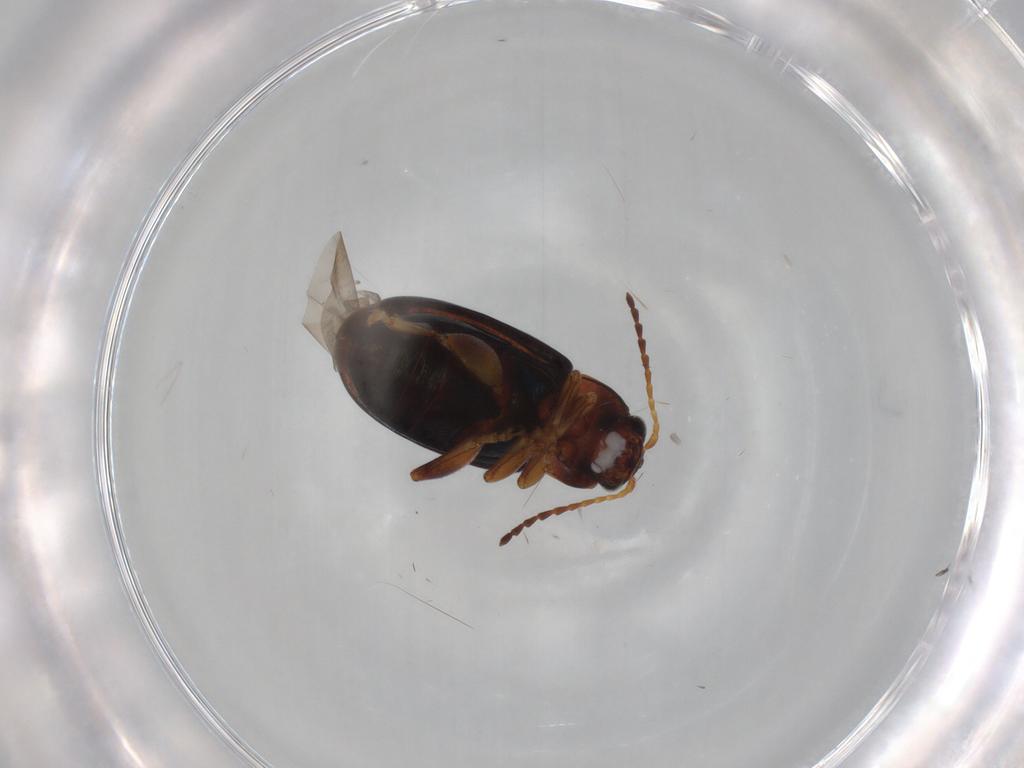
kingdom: Animalia
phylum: Arthropoda
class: Insecta
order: Coleoptera
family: Chrysomelidae
